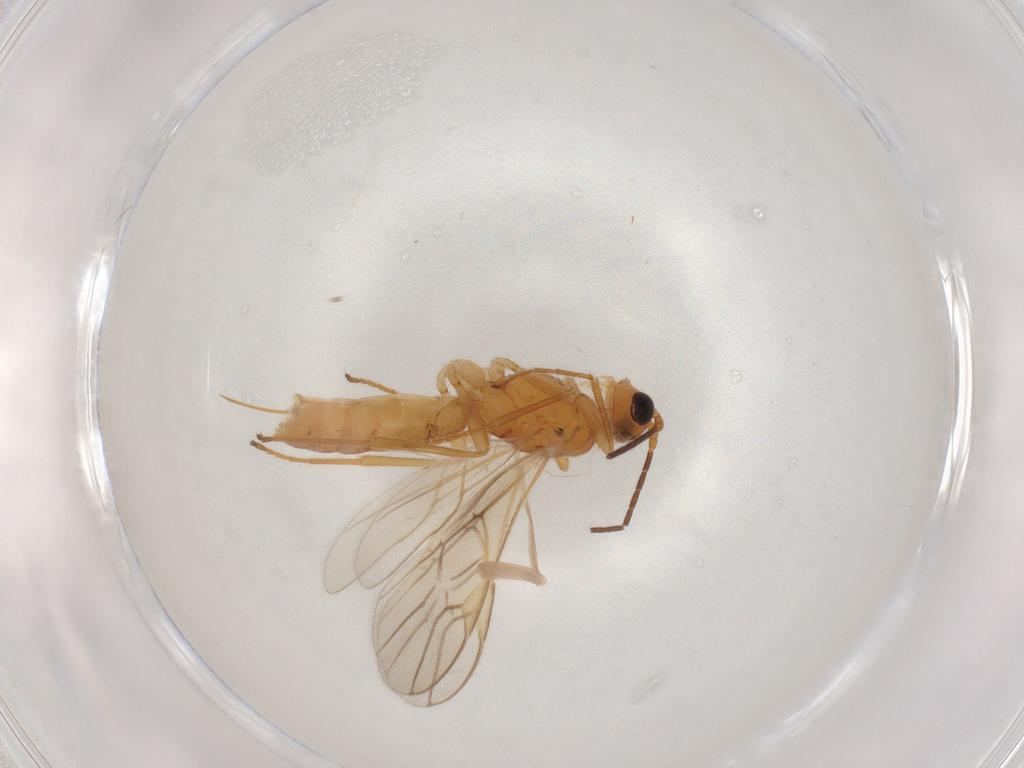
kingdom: Animalia
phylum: Arthropoda
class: Insecta
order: Hymenoptera
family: Braconidae
